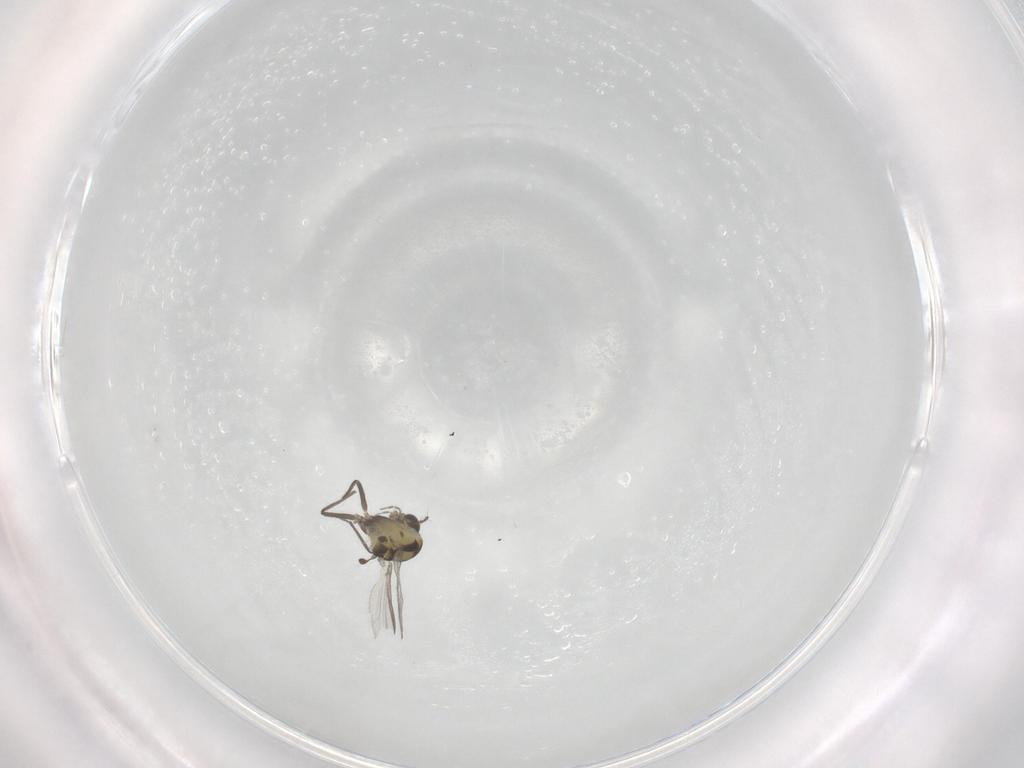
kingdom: Animalia
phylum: Arthropoda
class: Insecta
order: Diptera
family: Chironomidae
